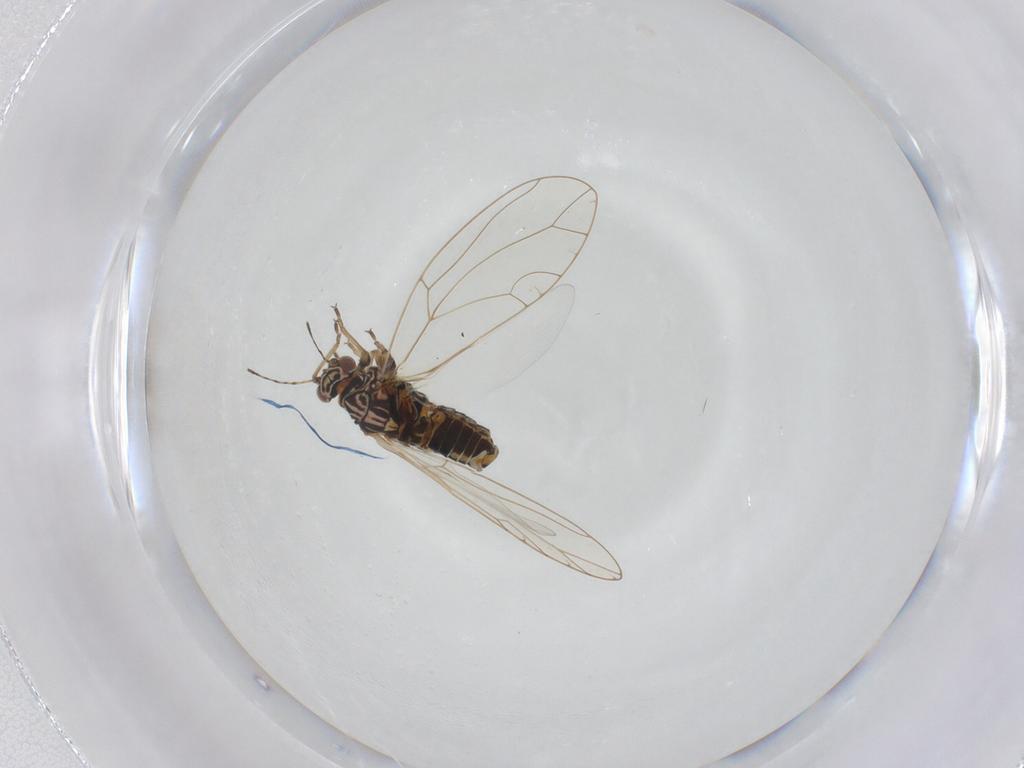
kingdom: Animalia
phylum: Arthropoda
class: Insecta
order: Hemiptera
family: Triozidae
